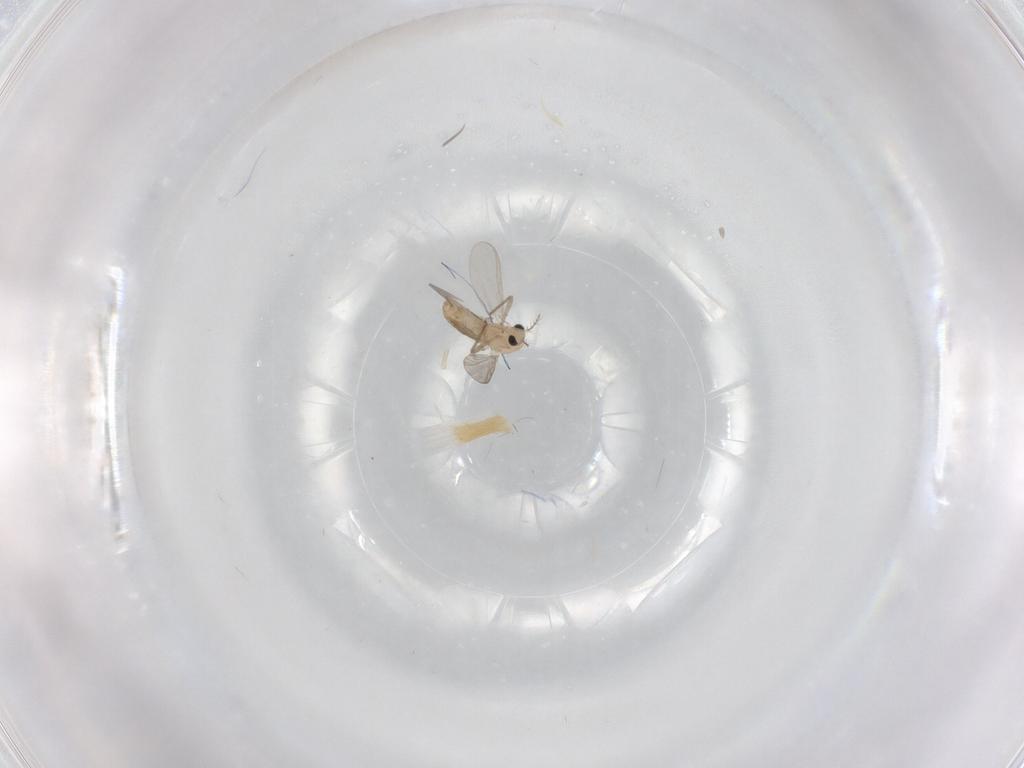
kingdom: Animalia
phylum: Arthropoda
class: Insecta
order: Diptera
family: Chironomidae
